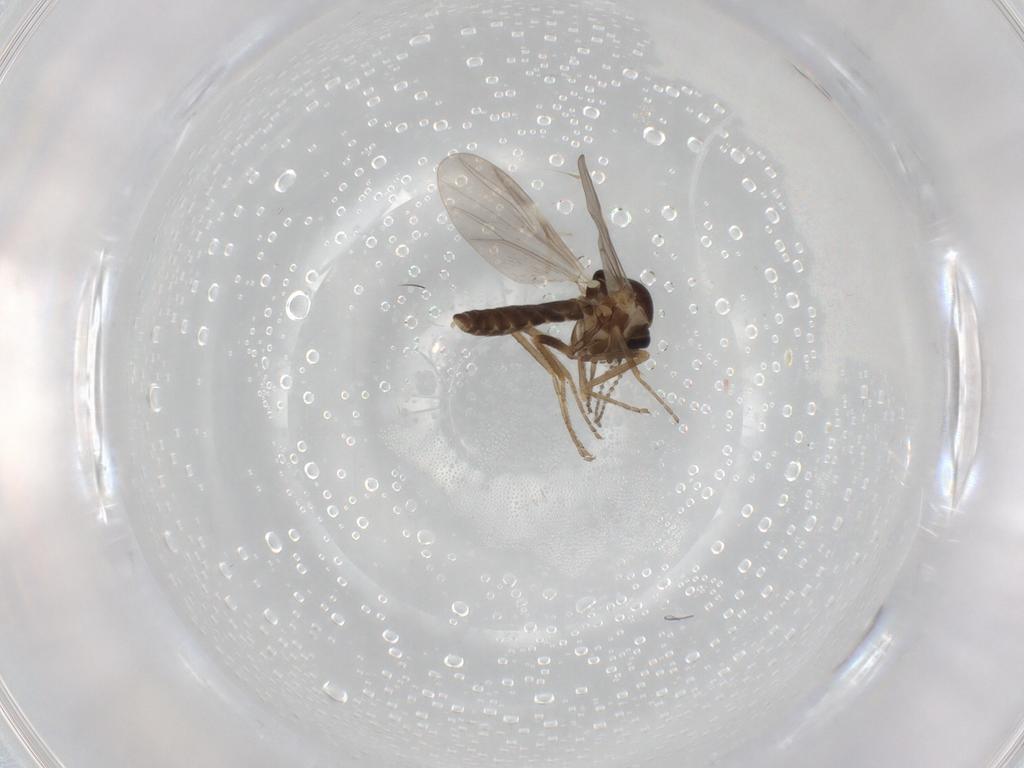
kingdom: Animalia
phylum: Arthropoda
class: Insecta
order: Diptera
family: Ceratopogonidae
